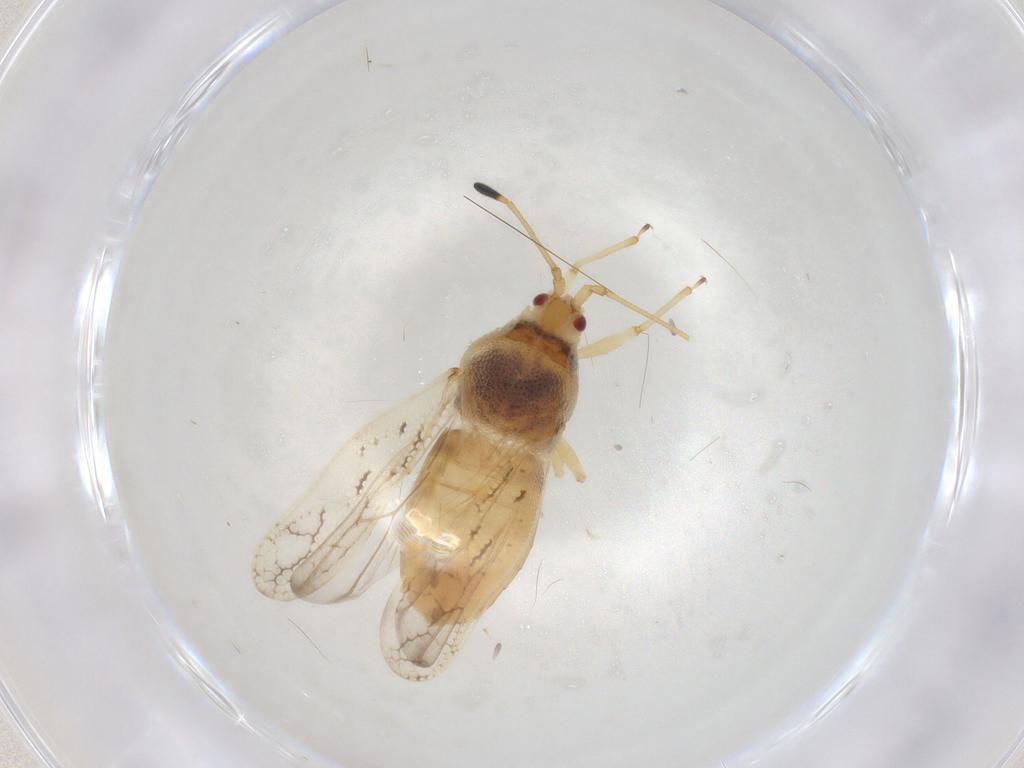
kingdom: Animalia
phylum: Arthropoda
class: Insecta
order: Hemiptera
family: Tingidae
